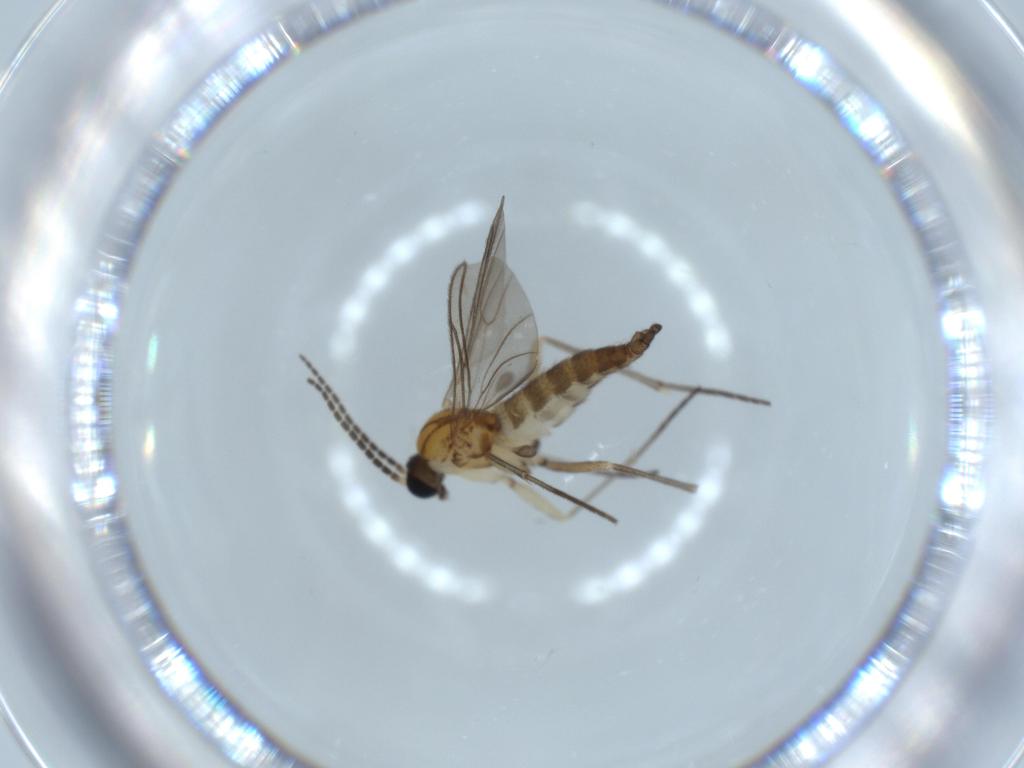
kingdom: Animalia
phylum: Arthropoda
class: Insecta
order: Diptera
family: Sciaridae
